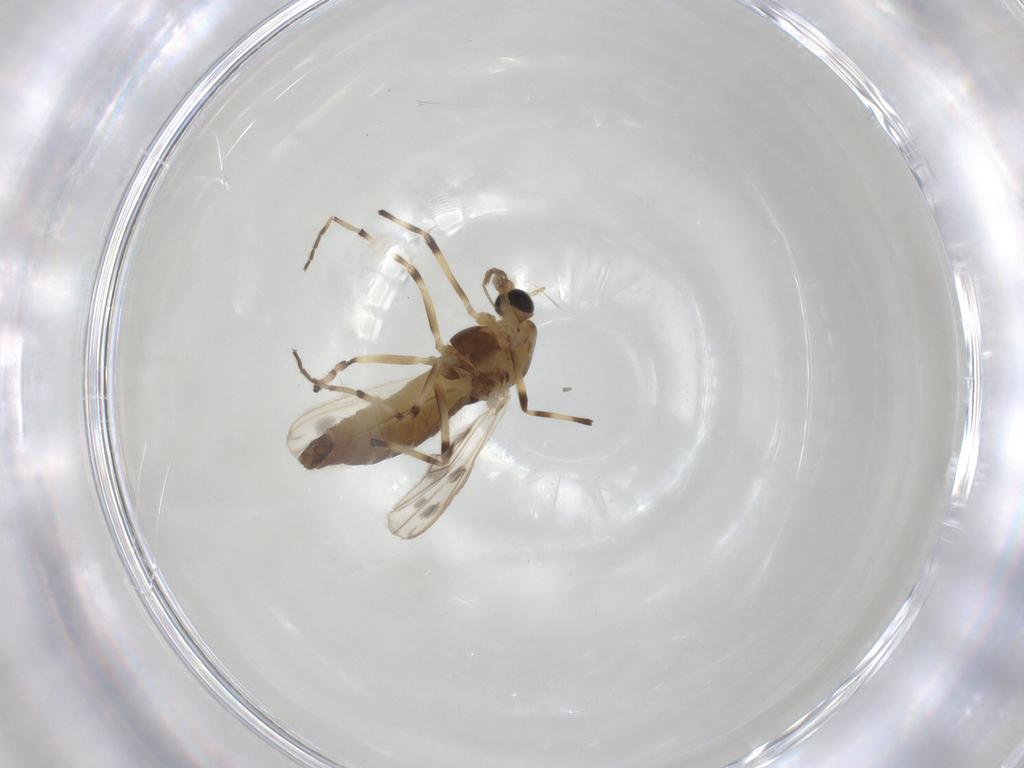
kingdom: Animalia
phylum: Arthropoda
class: Insecta
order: Diptera
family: Chironomidae
